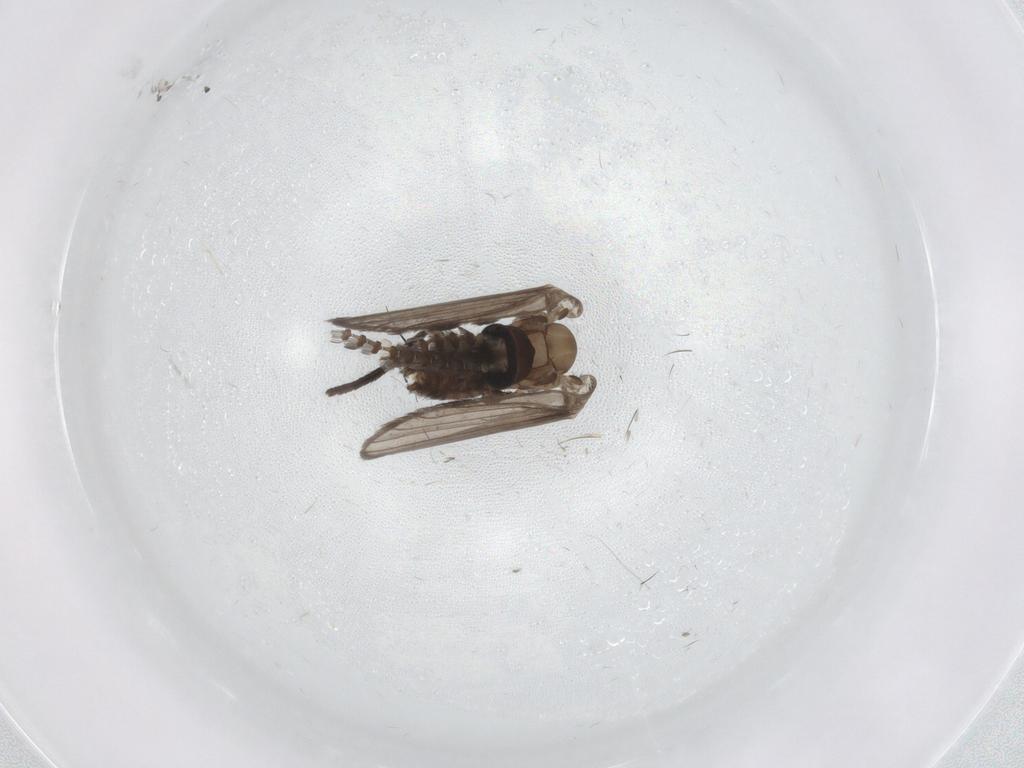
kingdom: Animalia
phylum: Arthropoda
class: Insecta
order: Diptera
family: Psychodidae
